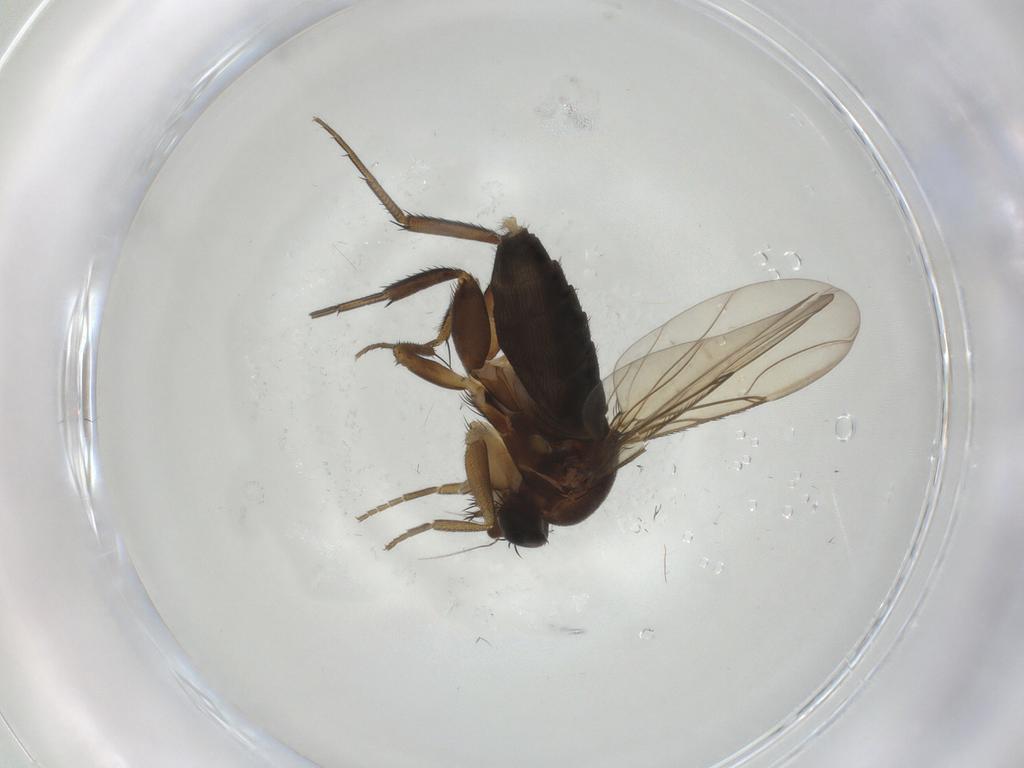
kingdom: Animalia
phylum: Arthropoda
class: Insecta
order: Diptera
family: Phoridae
